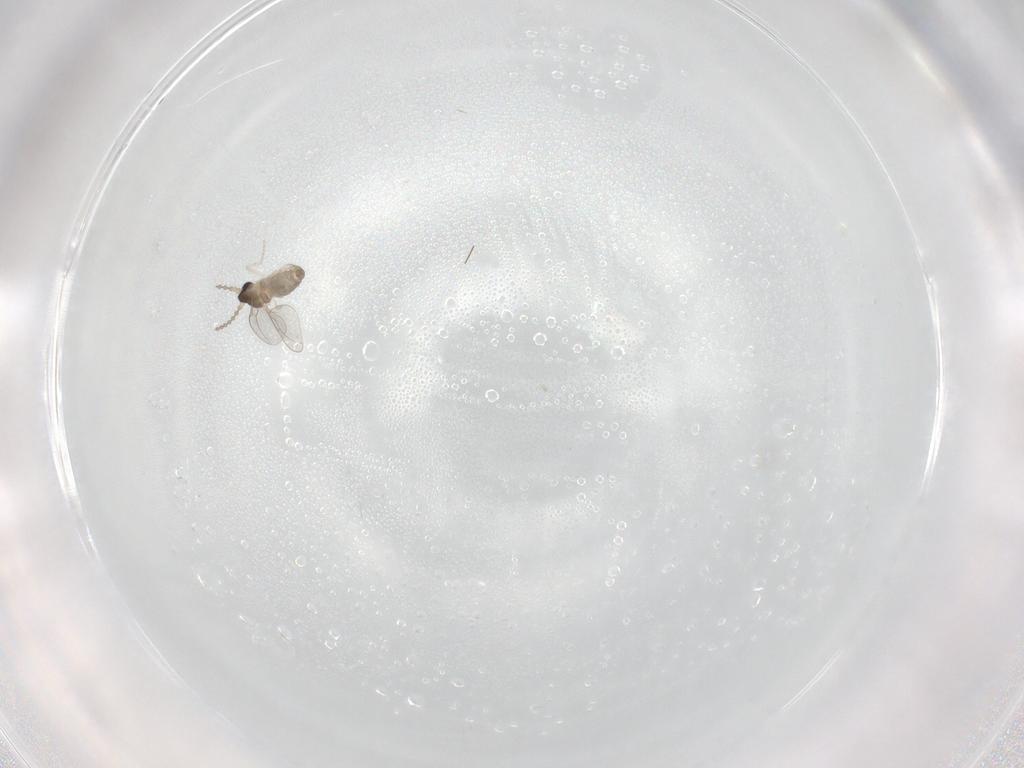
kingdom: Animalia
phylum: Arthropoda
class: Insecta
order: Diptera
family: Cecidomyiidae
